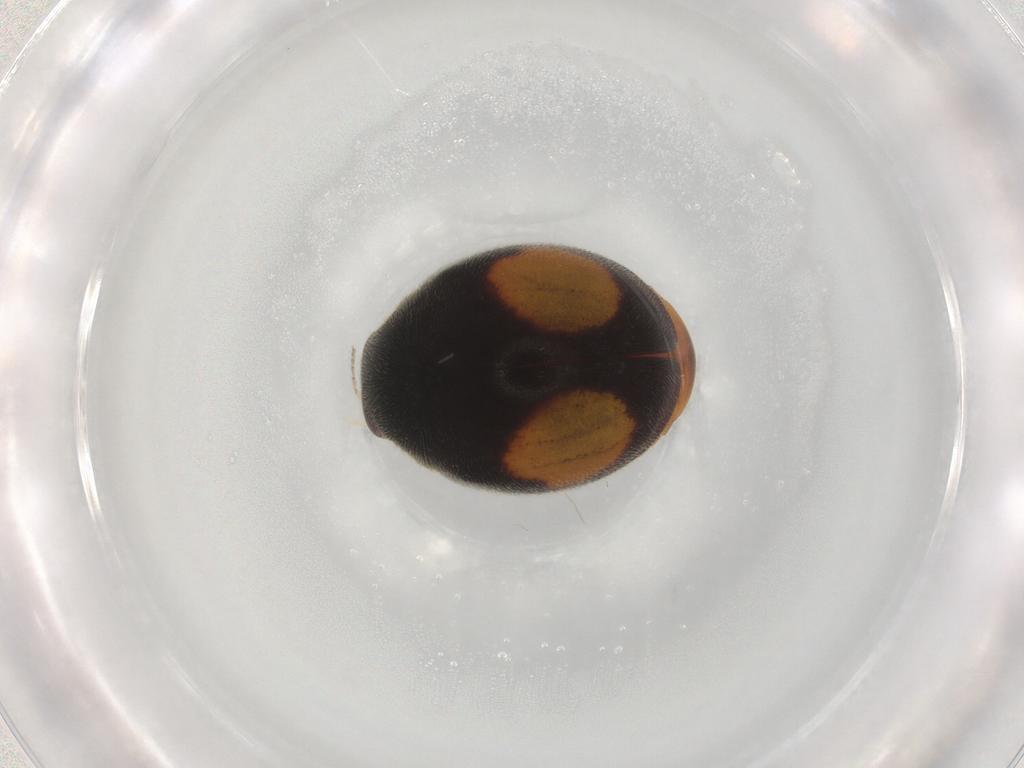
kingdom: Animalia
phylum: Arthropoda
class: Insecta
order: Coleoptera
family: Coccinellidae
